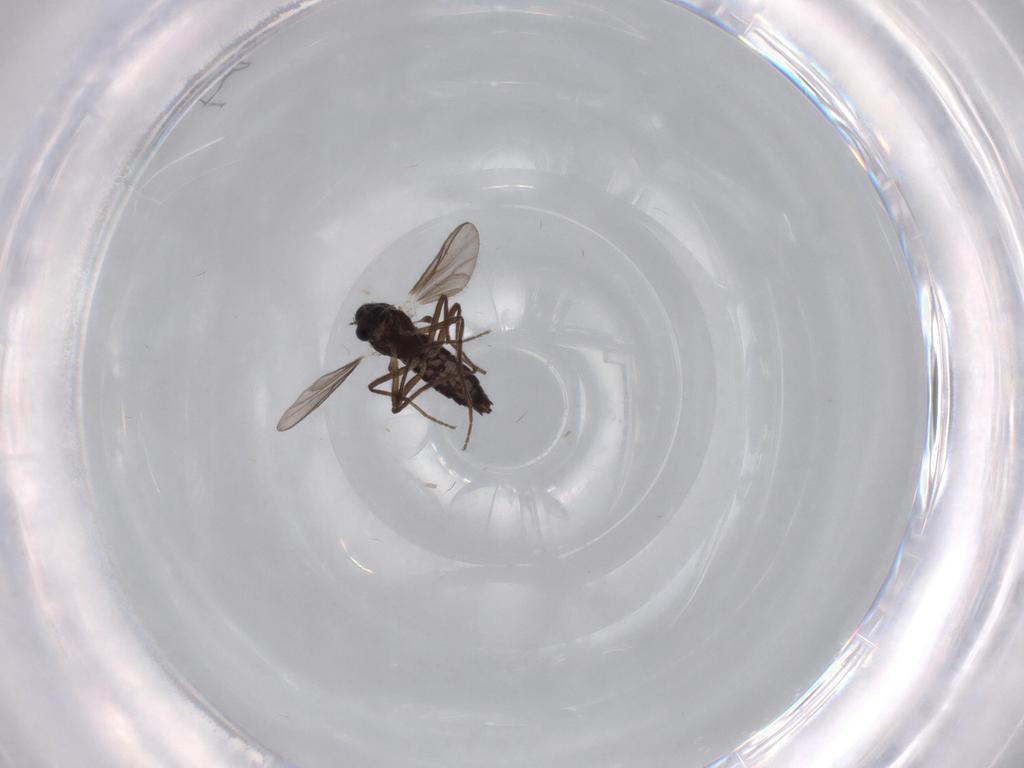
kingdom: Animalia
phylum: Arthropoda
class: Insecta
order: Diptera
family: Chironomidae
